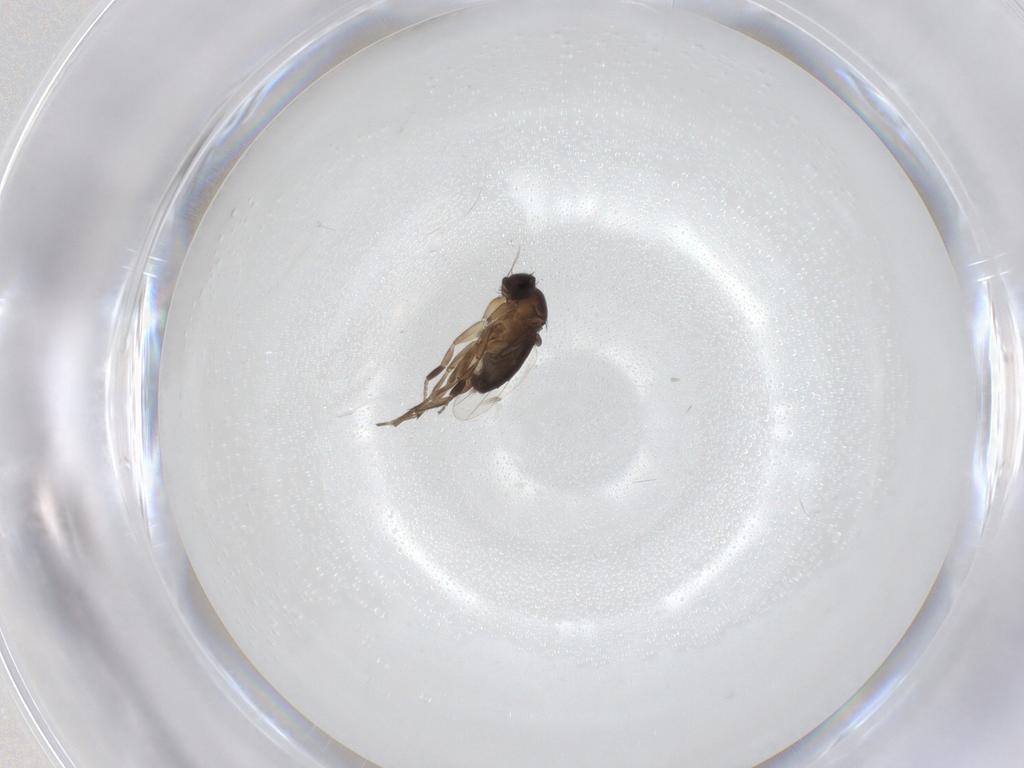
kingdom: Animalia
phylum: Arthropoda
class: Insecta
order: Diptera
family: Phoridae
